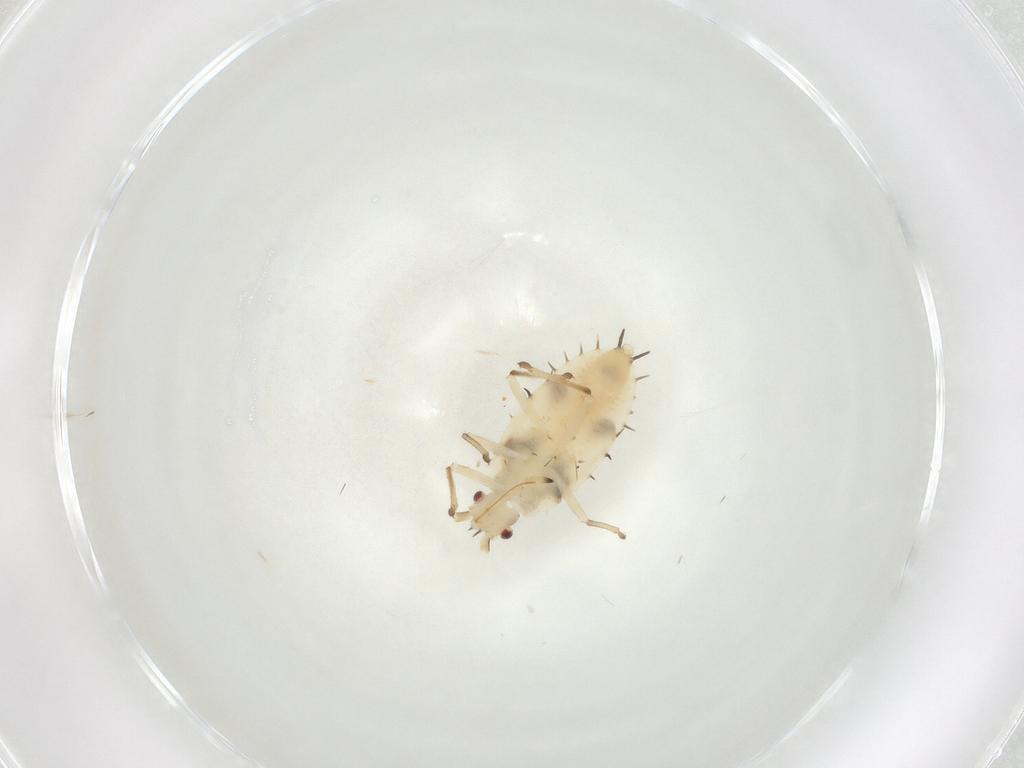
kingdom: Animalia
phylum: Arthropoda
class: Insecta
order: Hemiptera
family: Tingidae
